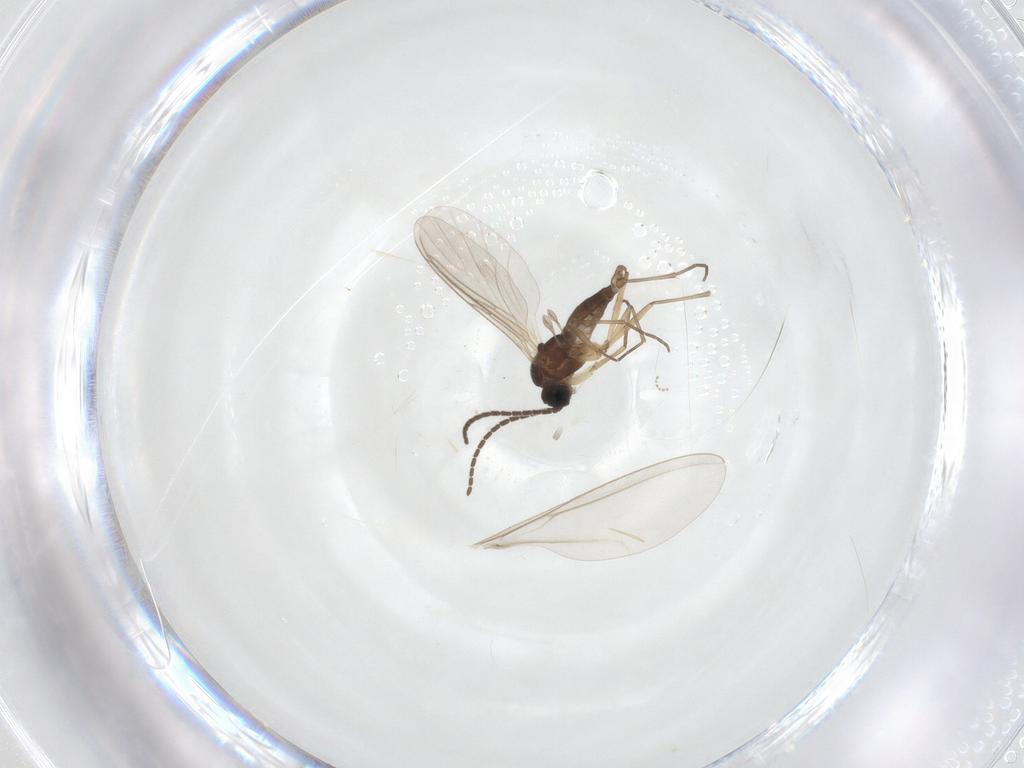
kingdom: Animalia
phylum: Arthropoda
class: Insecta
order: Diptera
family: Sciaridae
